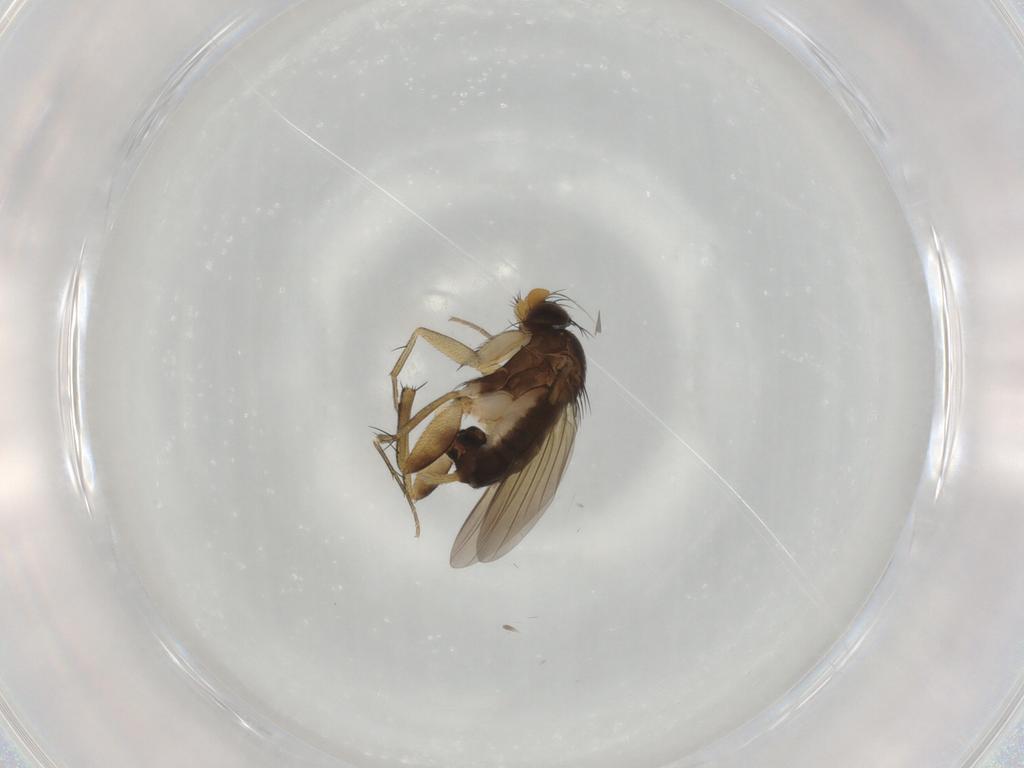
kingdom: Animalia
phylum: Arthropoda
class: Insecta
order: Diptera
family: Phoridae
